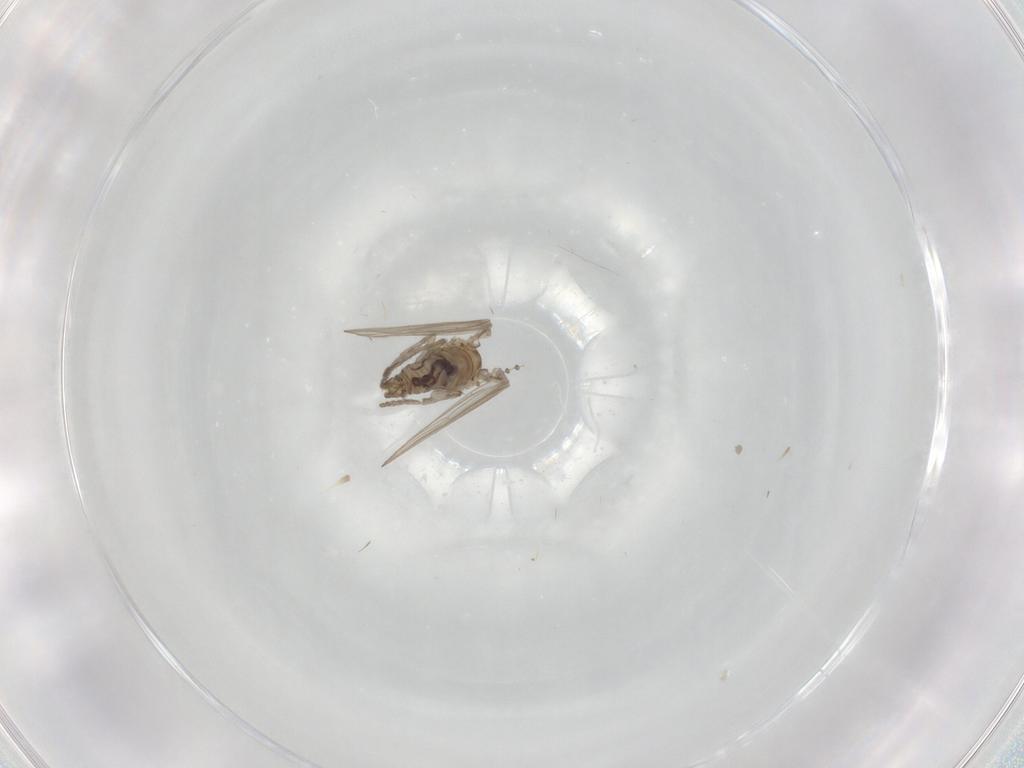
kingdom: Animalia
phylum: Arthropoda
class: Insecta
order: Diptera
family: Psychodidae
